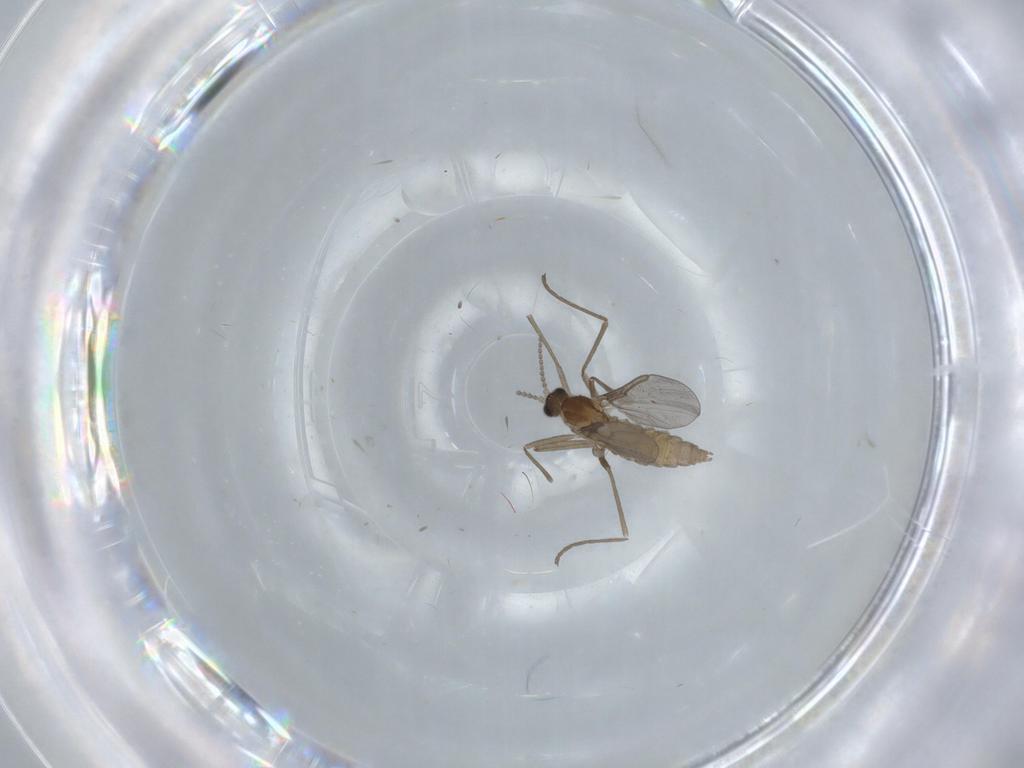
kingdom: Animalia
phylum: Arthropoda
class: Insecta
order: Diptera
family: Cecidomyiidae
